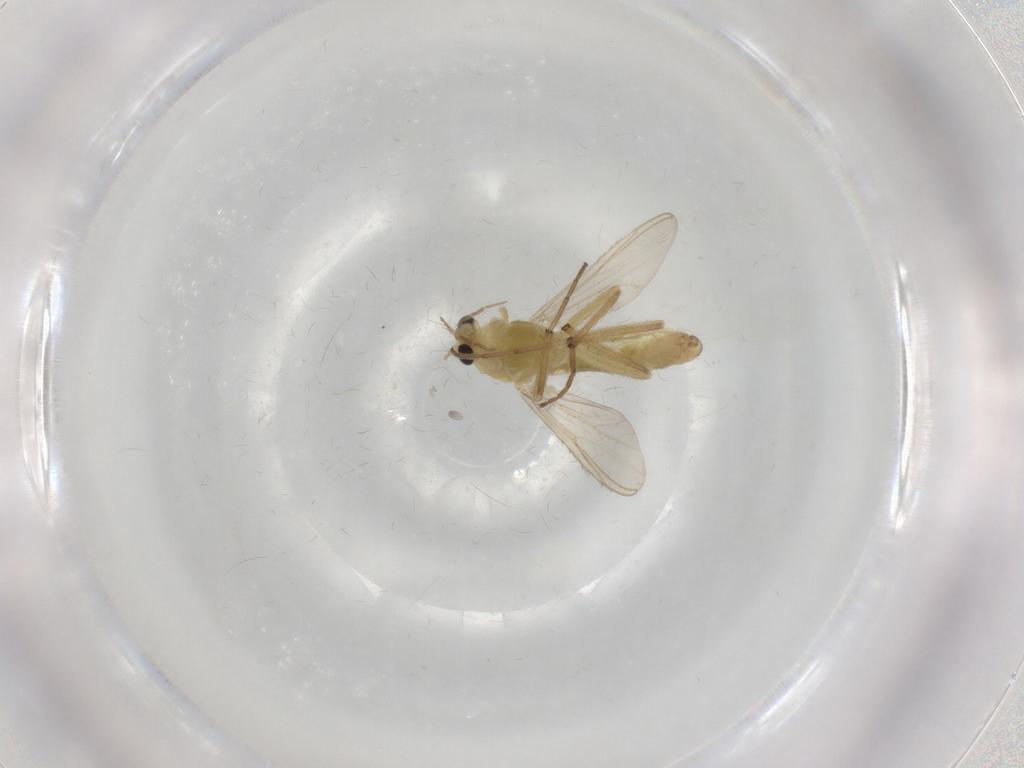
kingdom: Animalia
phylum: Arthropoda
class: Insecta
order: Diptera
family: Chironomidae
